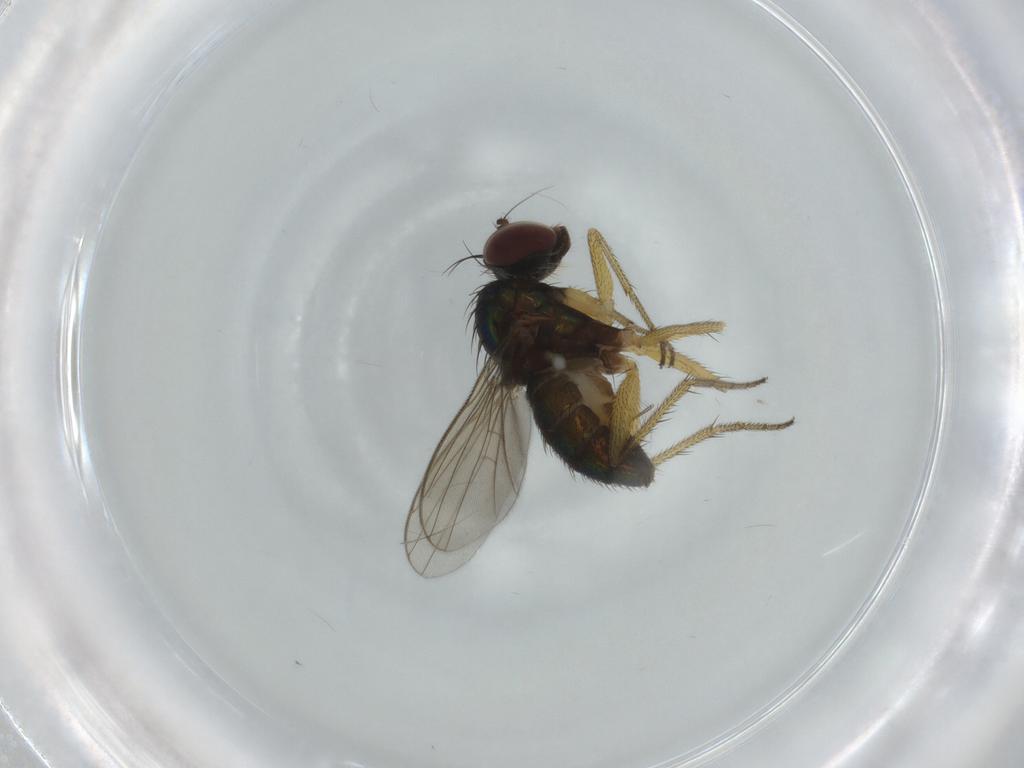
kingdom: Animalia
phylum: Arthropoda
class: Insecta
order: Diptera
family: Dolichopodidae
